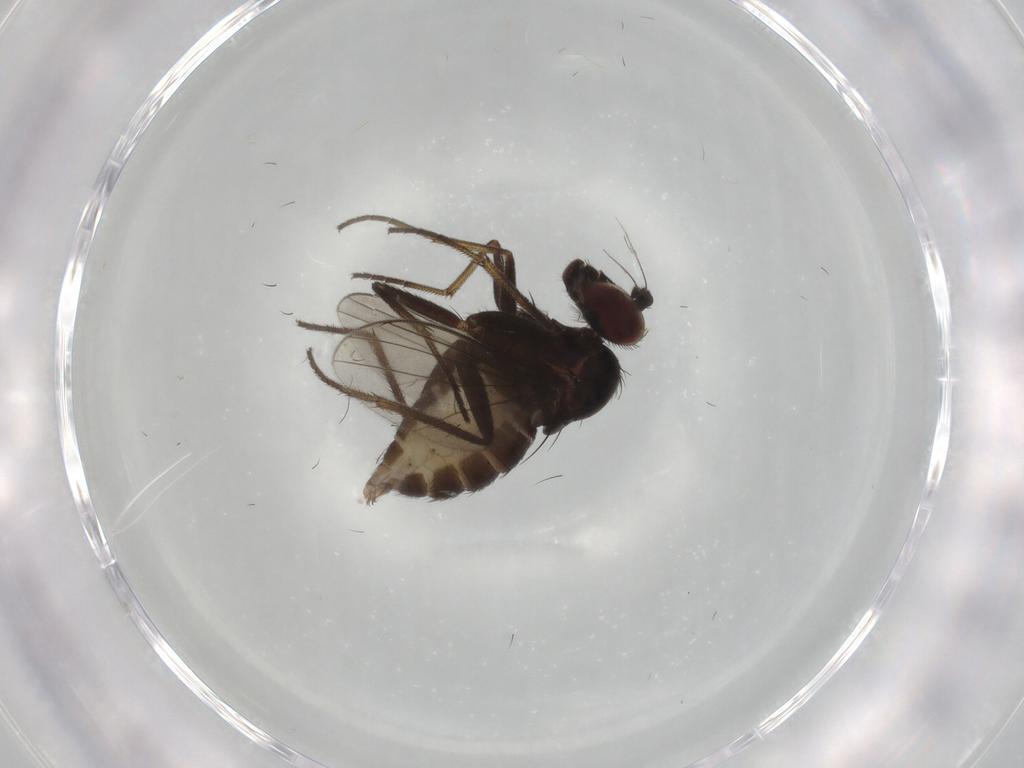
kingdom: Animalia
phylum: Arthropoda
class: Insecta
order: Diptera
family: Dolichopodidae
